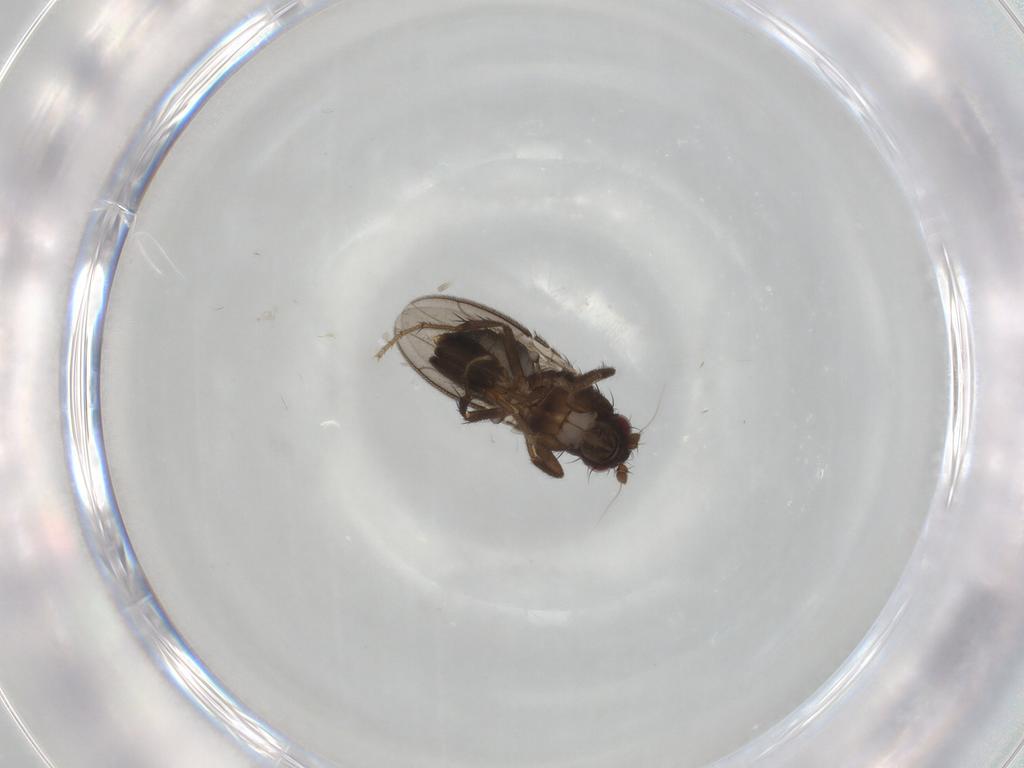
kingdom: Animalia
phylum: Arthropoda
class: Insecta
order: Diptera
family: Sphaeroceridae
